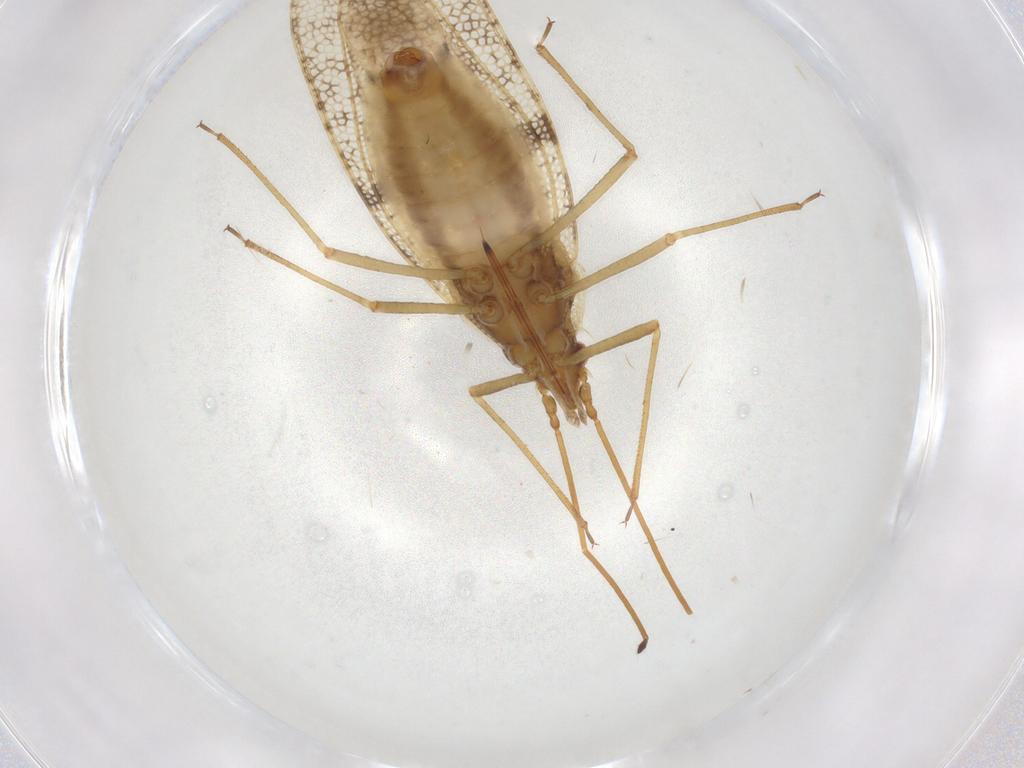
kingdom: Animalia
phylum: Arthropoda
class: Insecta
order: Hemiptera
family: Tingidae
